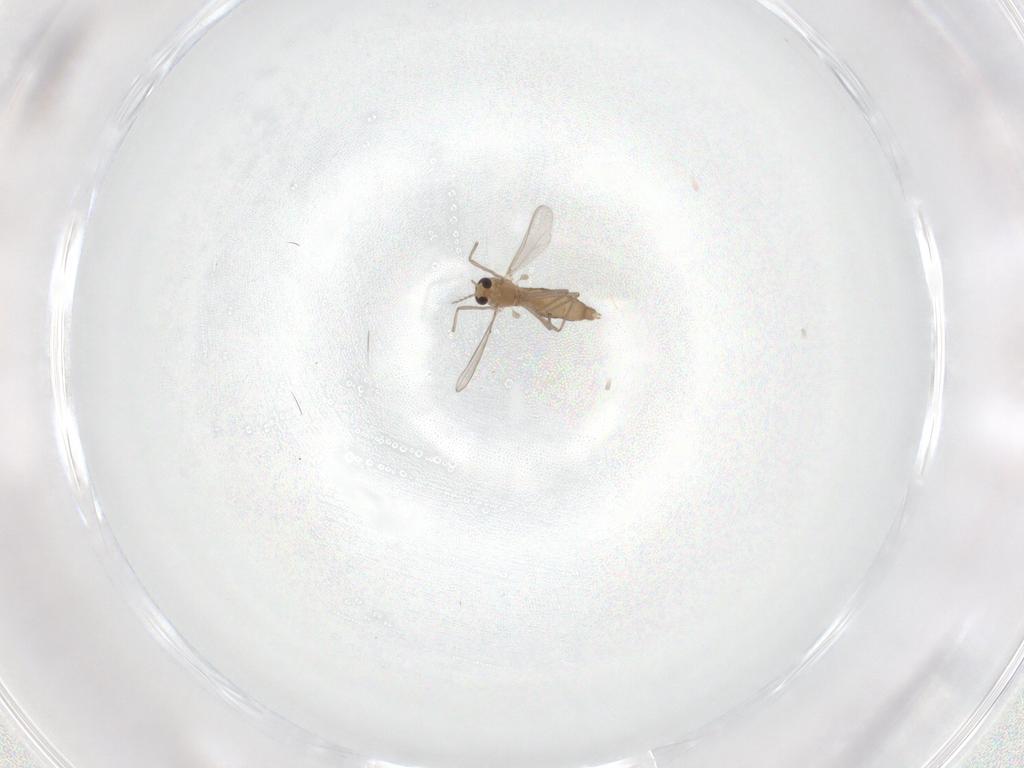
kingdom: Animalia
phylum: Arthropoda
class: Insecta
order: Diptera
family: Chironomidae
